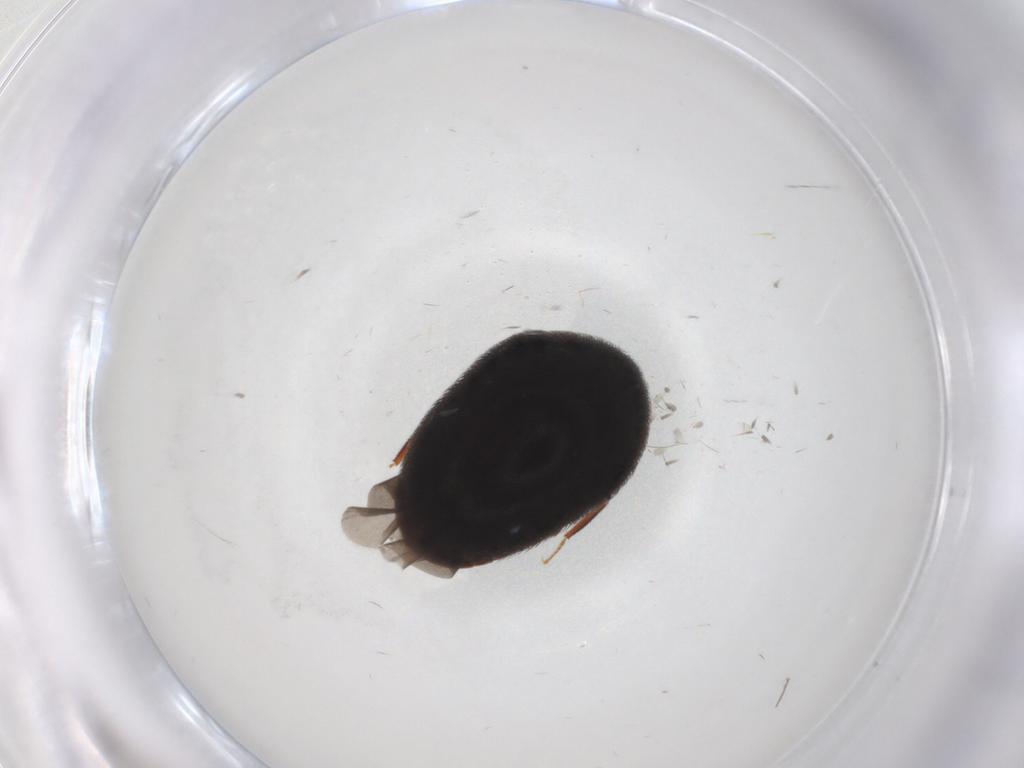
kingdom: Animalia
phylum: Arthropoda
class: Insecta
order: Coleoptera
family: Dermestidae
